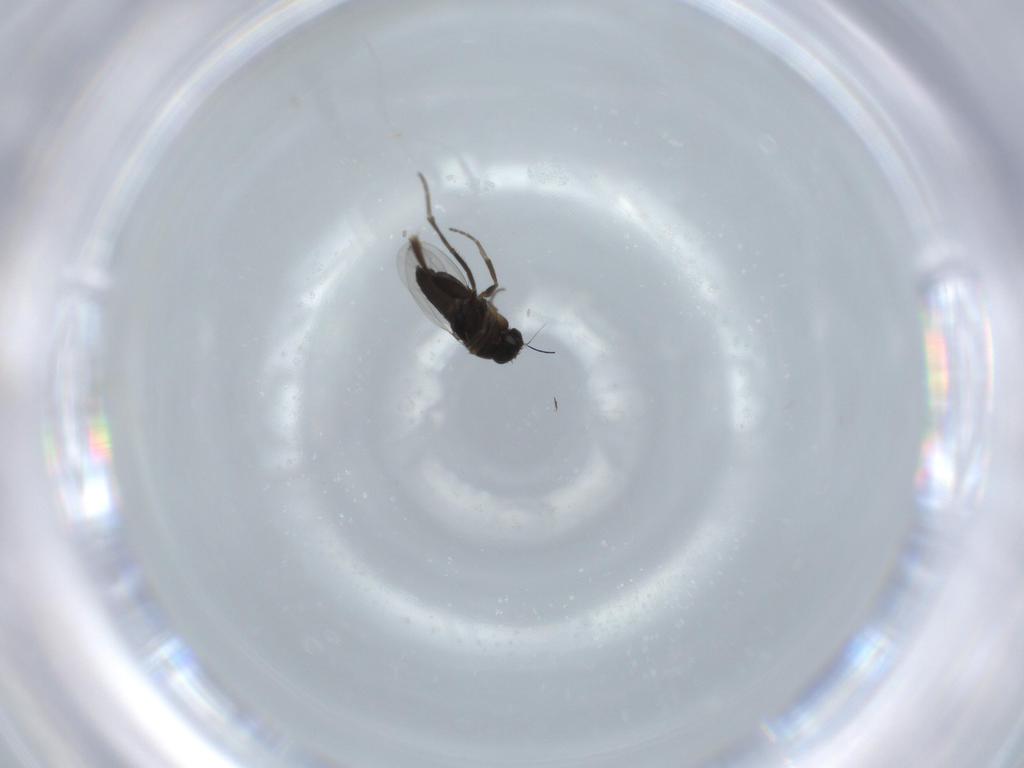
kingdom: Animalia
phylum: Arthropoda
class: Insecta
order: Diptera
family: Phoridae
